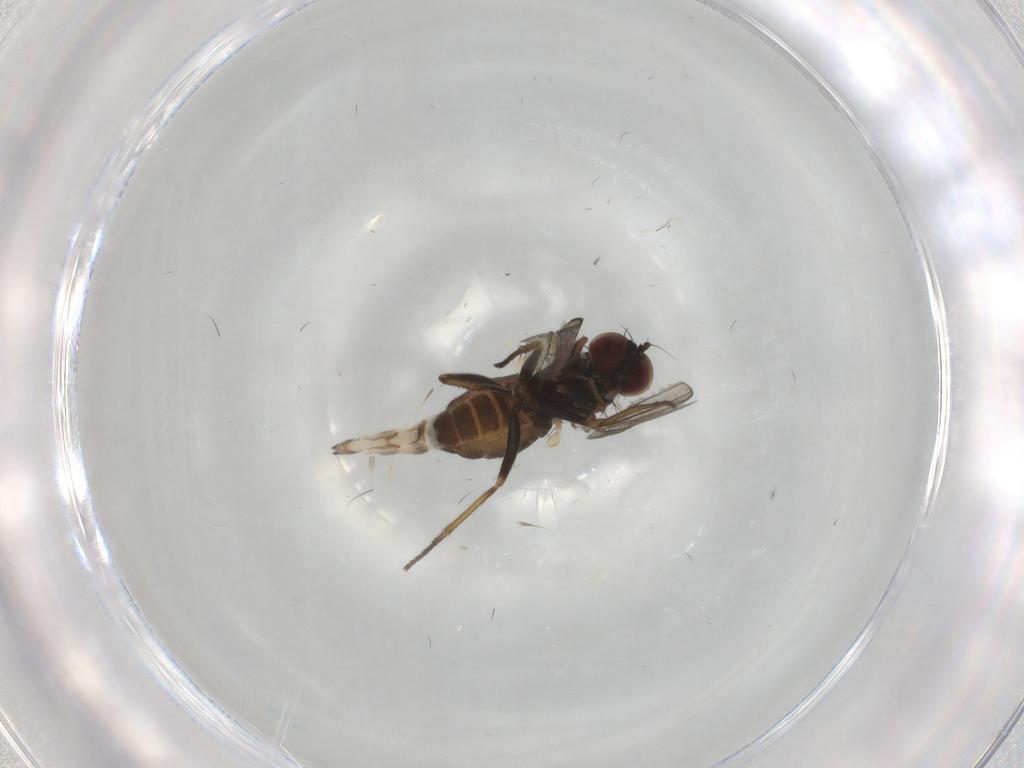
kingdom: Animalia
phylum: Arthropoda
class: Insecta
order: Diptera
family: Dolichopodidae
